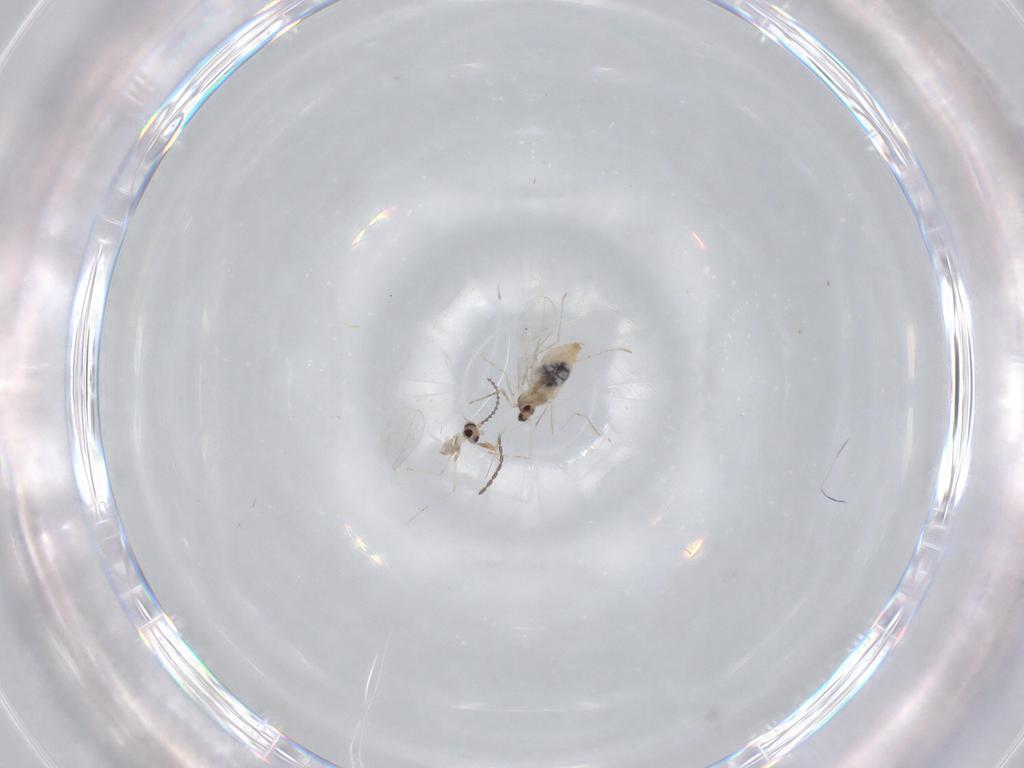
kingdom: Animalia
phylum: Arthropoda
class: Insecta
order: Diptera
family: Cecidomyiidae
